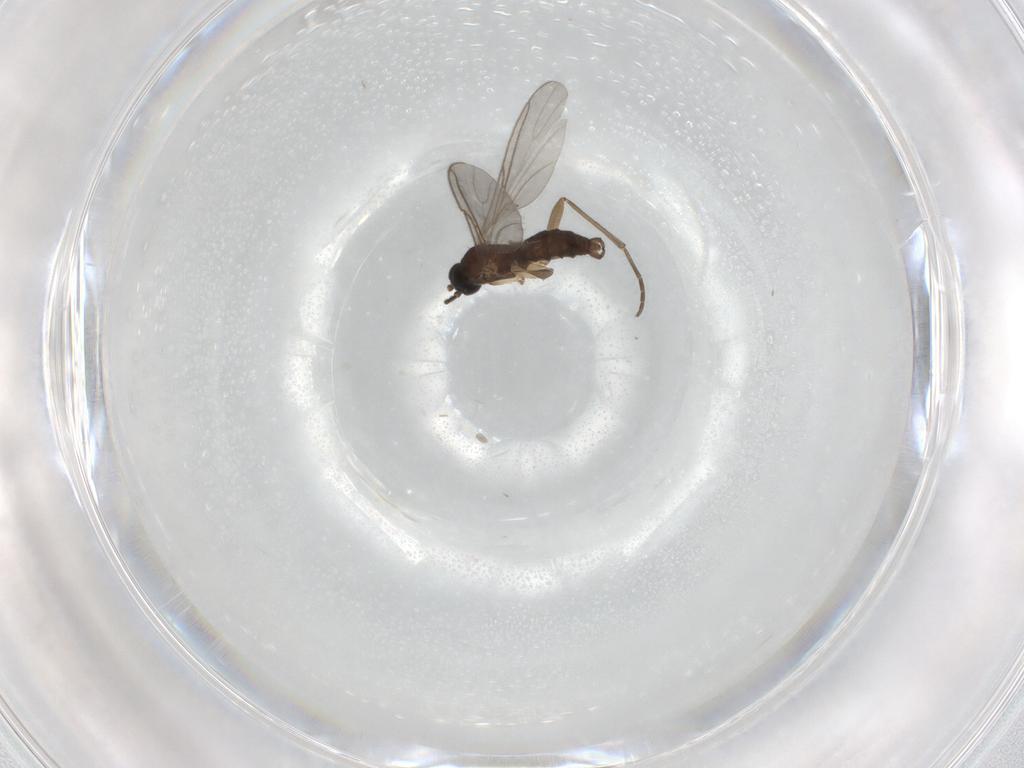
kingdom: Animalia
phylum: Arthropoda
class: Insecta
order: Diptera
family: Sciaridae
